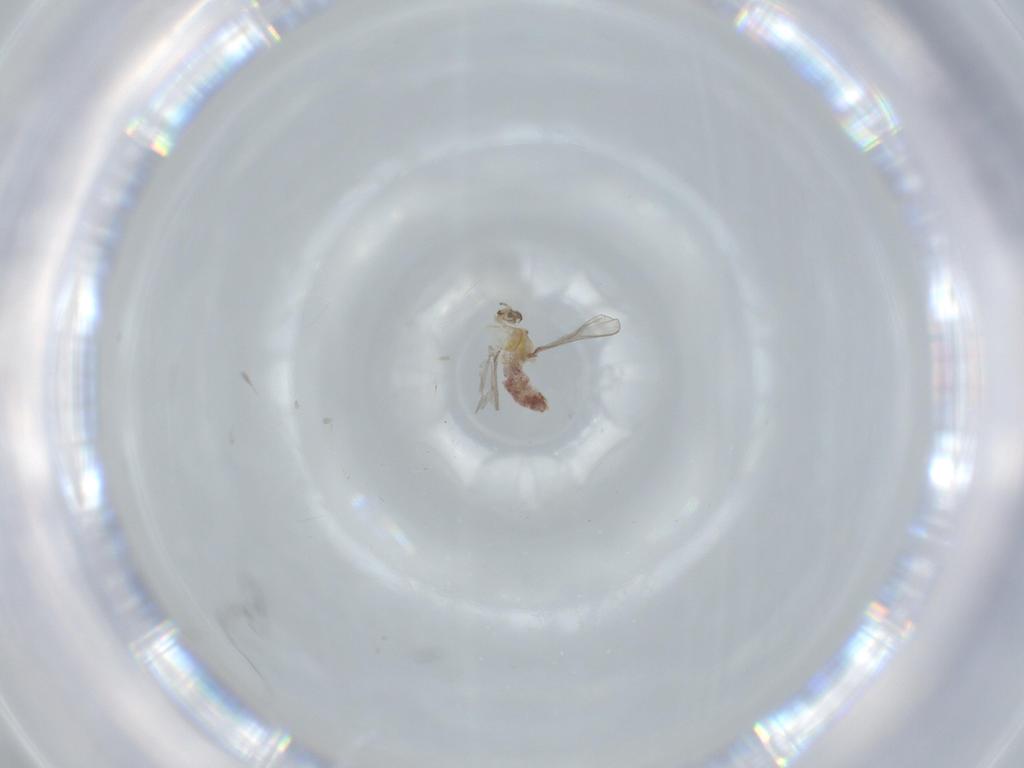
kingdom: Animalia
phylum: Arthropoda
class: Insecta
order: Diptera
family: Chironomidae
